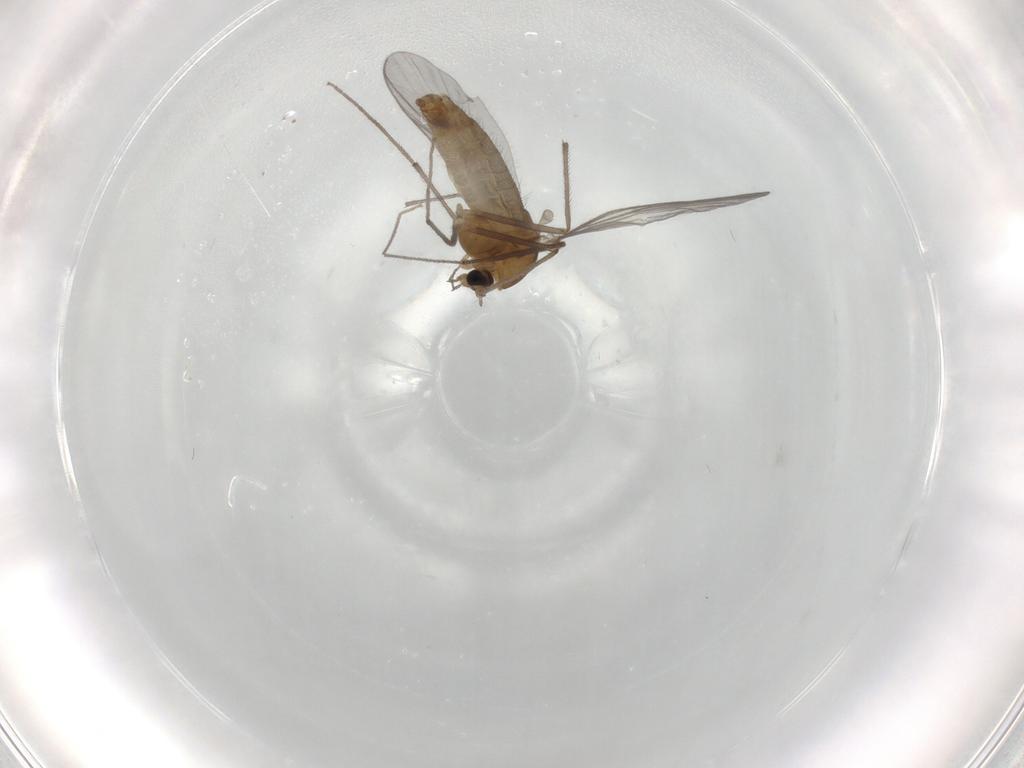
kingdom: Animalia
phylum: Arthropoda
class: Insecta
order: Diptera
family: Chironomidae
